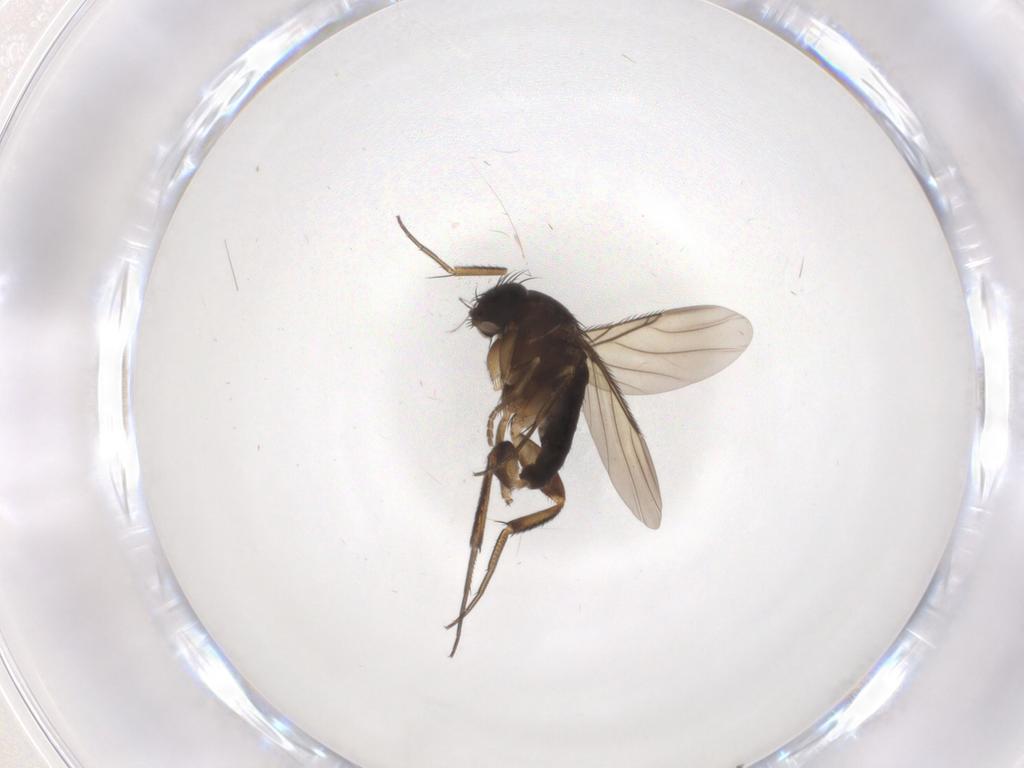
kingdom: Animalia
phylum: Arthropoda
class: Insecta
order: Diptera
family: Phoridae
